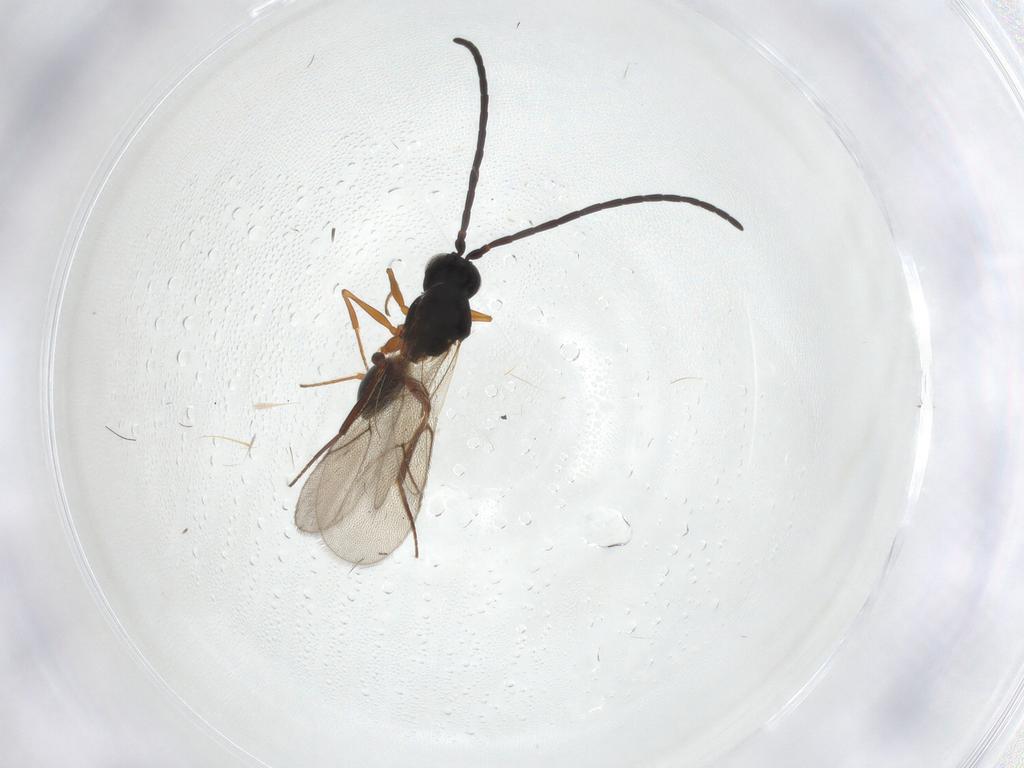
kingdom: Animalia
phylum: Arthropoda
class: Insecta
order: Hymenoptera
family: Figitidae
